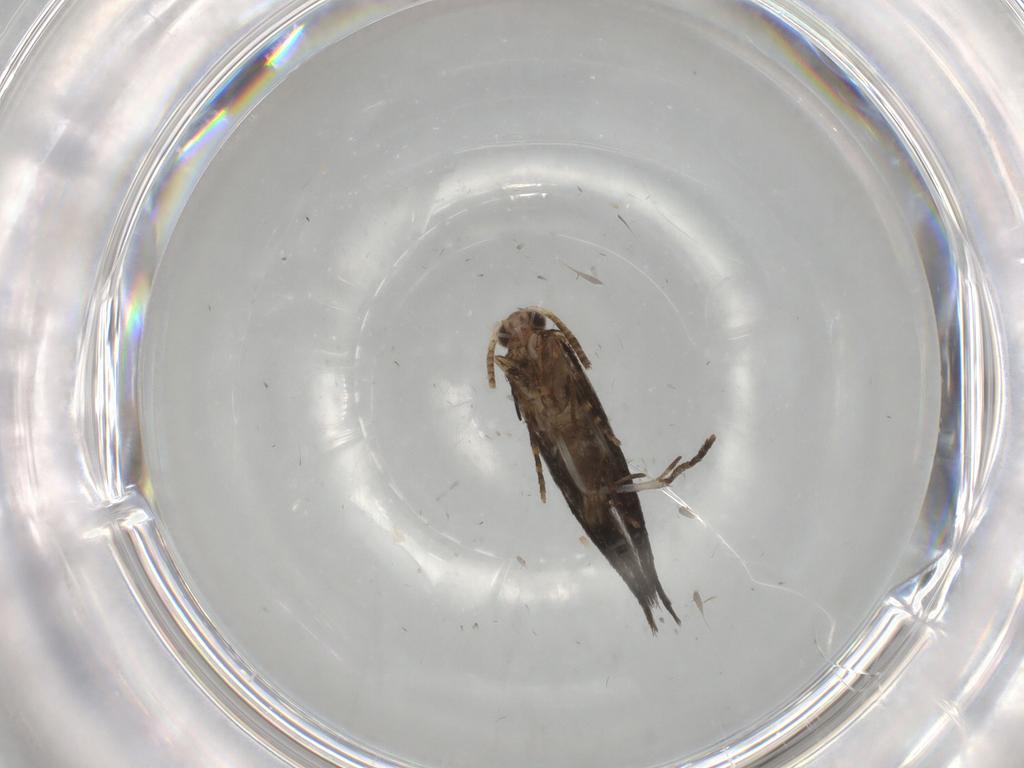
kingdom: Animalia
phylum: Arthropoda
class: Insecta
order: Lepidoptera
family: Tineidae
